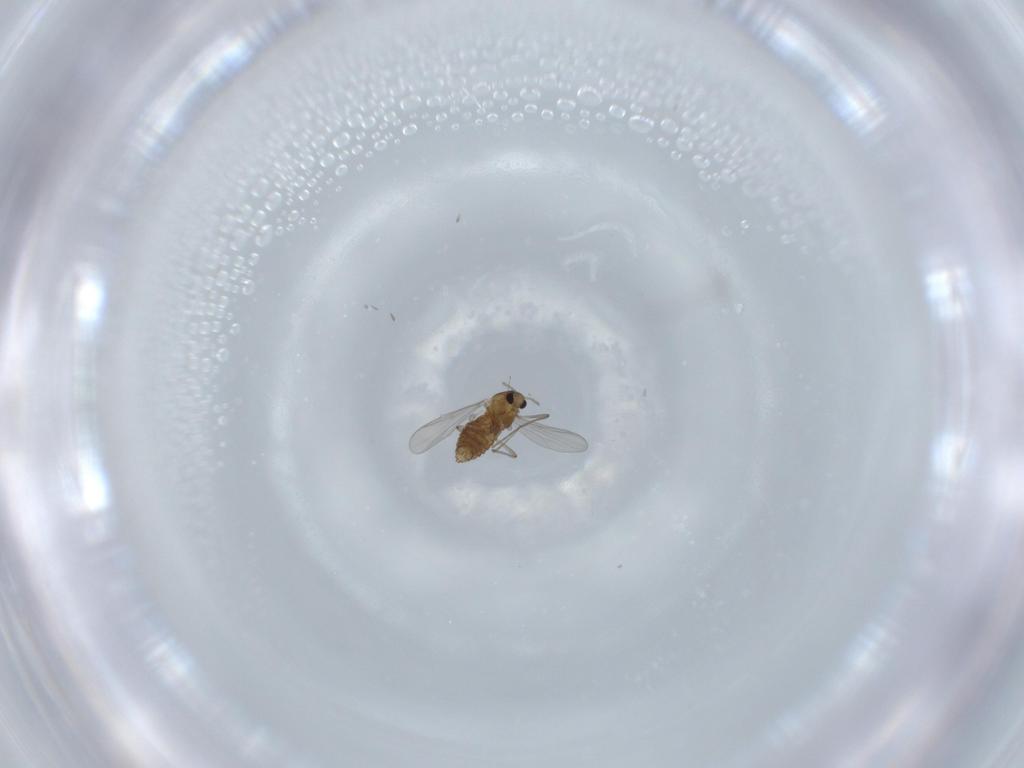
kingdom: Animalia
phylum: Arthropoda
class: Insecta
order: Diptera
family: Chironomidae
